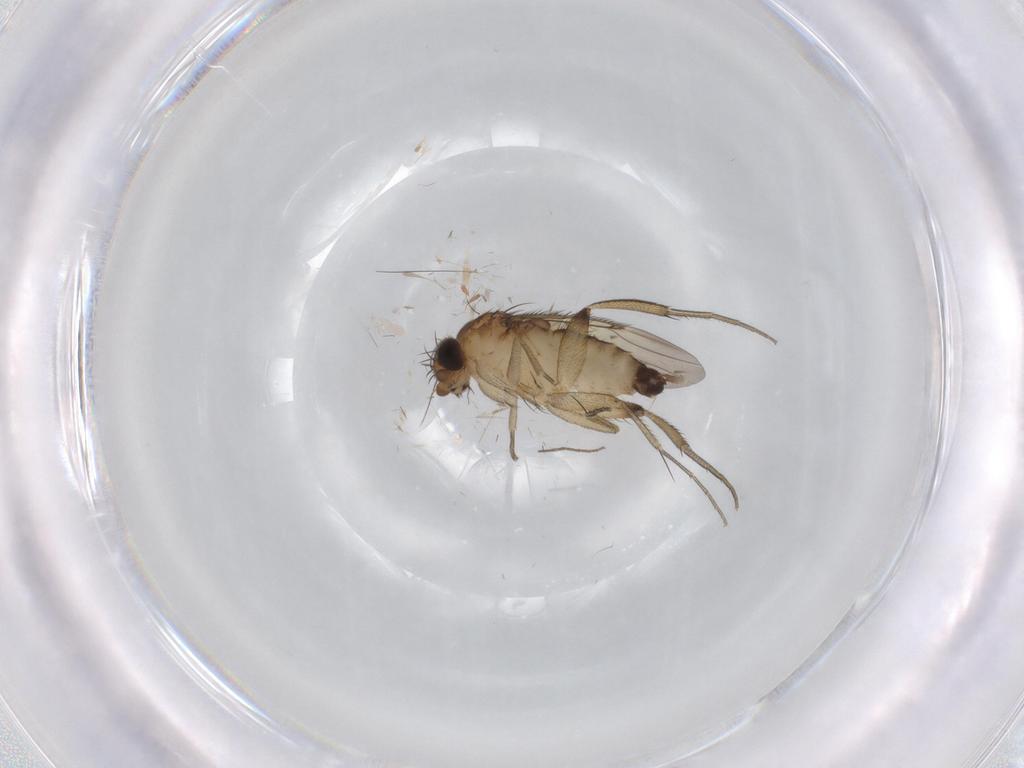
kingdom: Animalia
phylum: Arthropoda
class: Insecta
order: Diptera
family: Phoridae
